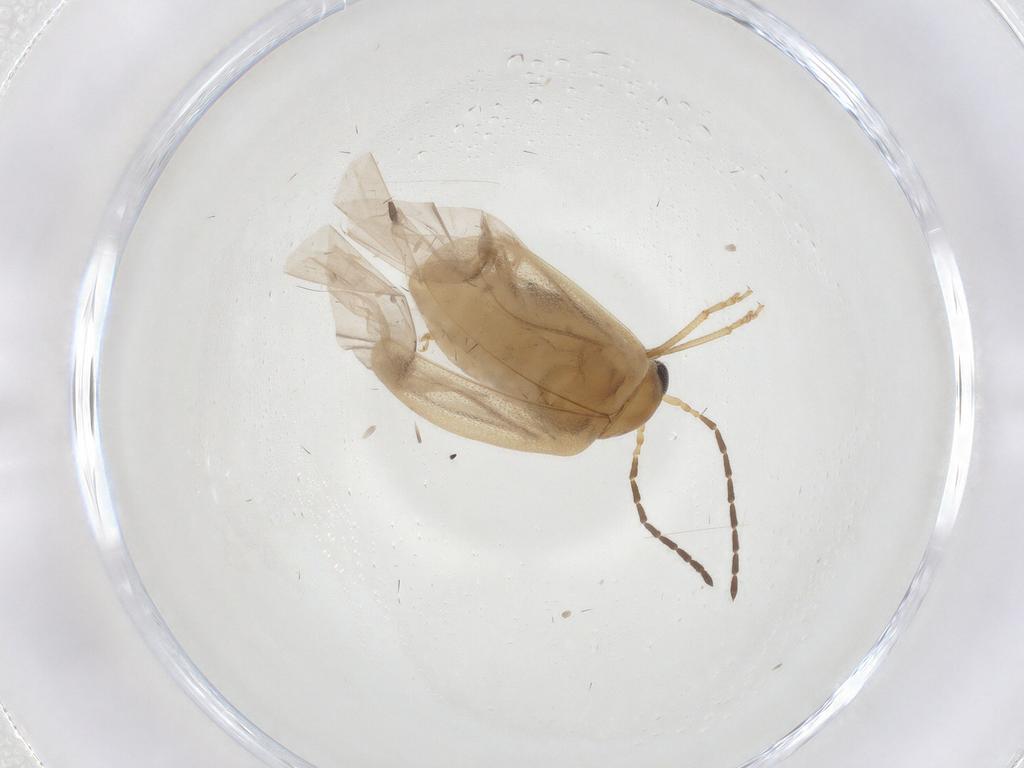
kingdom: Animalia
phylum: Arthropoda
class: Insecta
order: Coleoptera
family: Chrysomelidae
